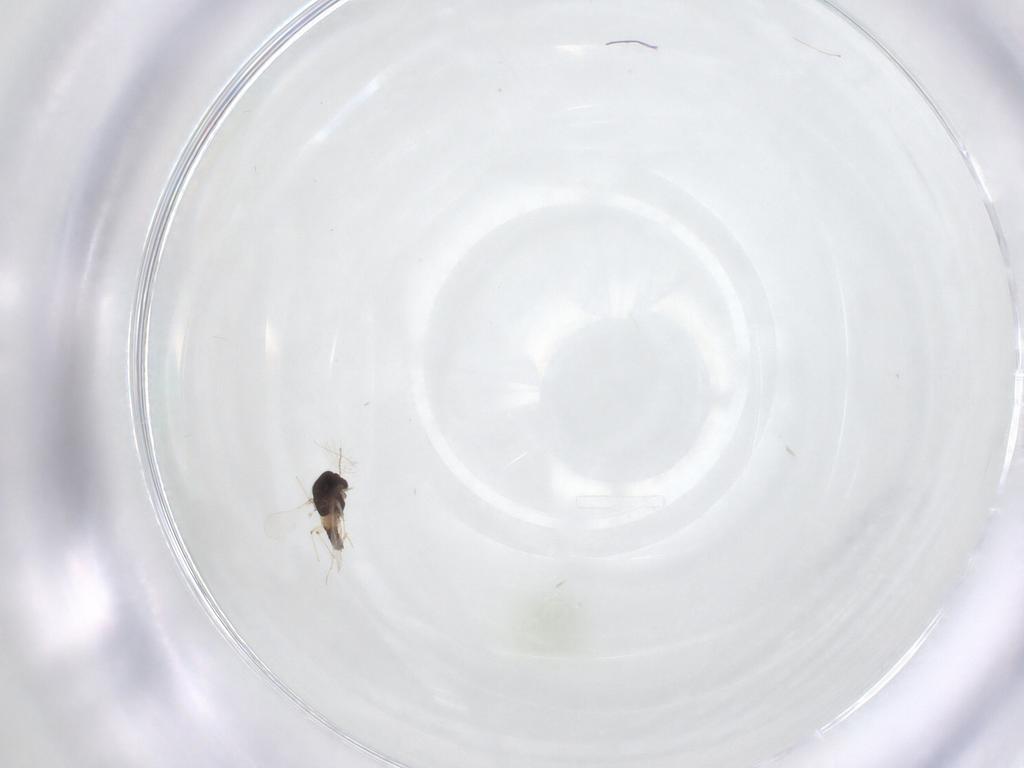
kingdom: Animalia
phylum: Arthropoda
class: Insecta
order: Diptera
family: Chironomidae
